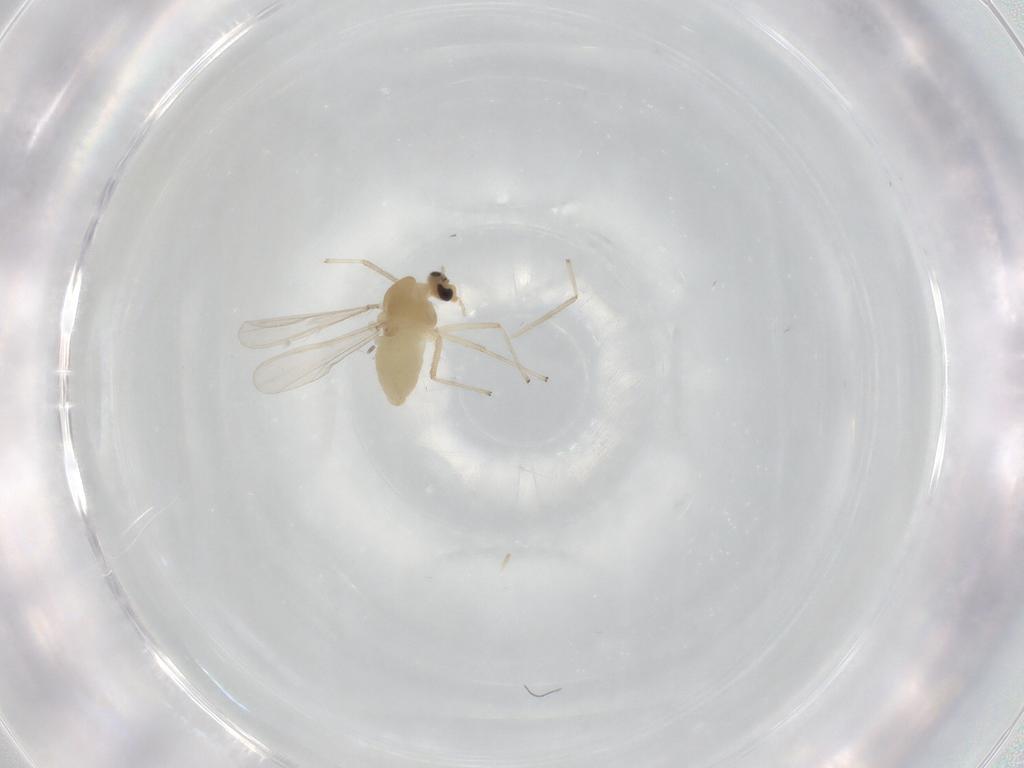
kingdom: Animalia
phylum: Arthropoda
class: Insecta
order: Diptera
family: Chironomidae
